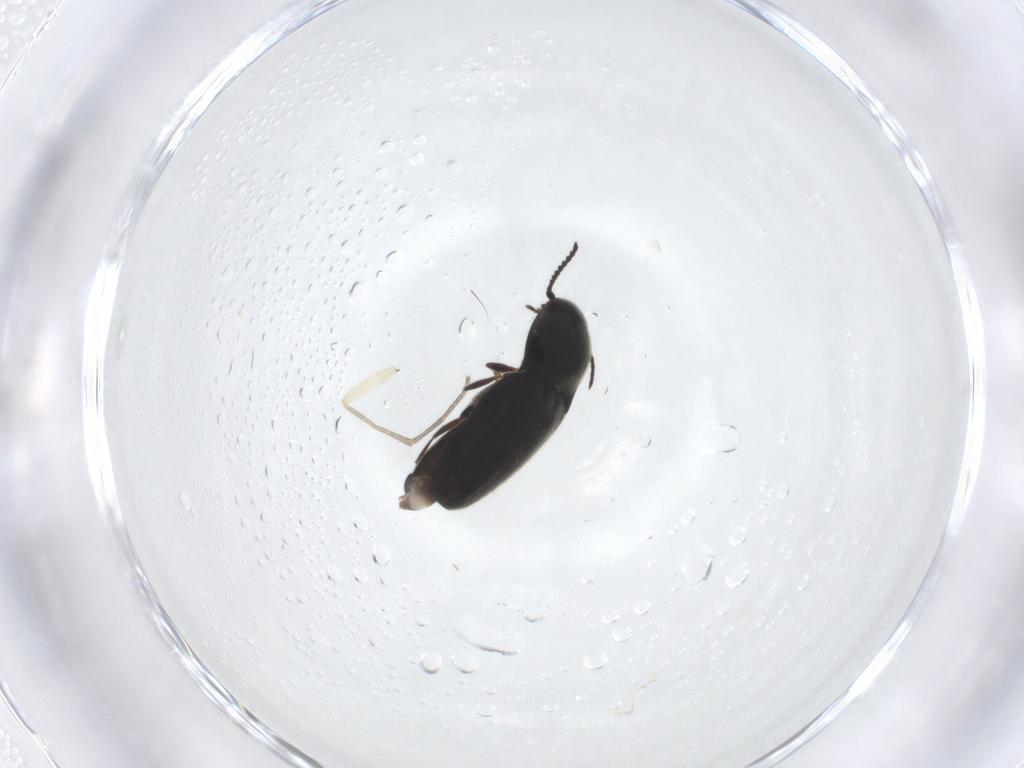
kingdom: Animalia
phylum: Arthropoda
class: Insecta
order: Coleoptera
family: Latridiidae
